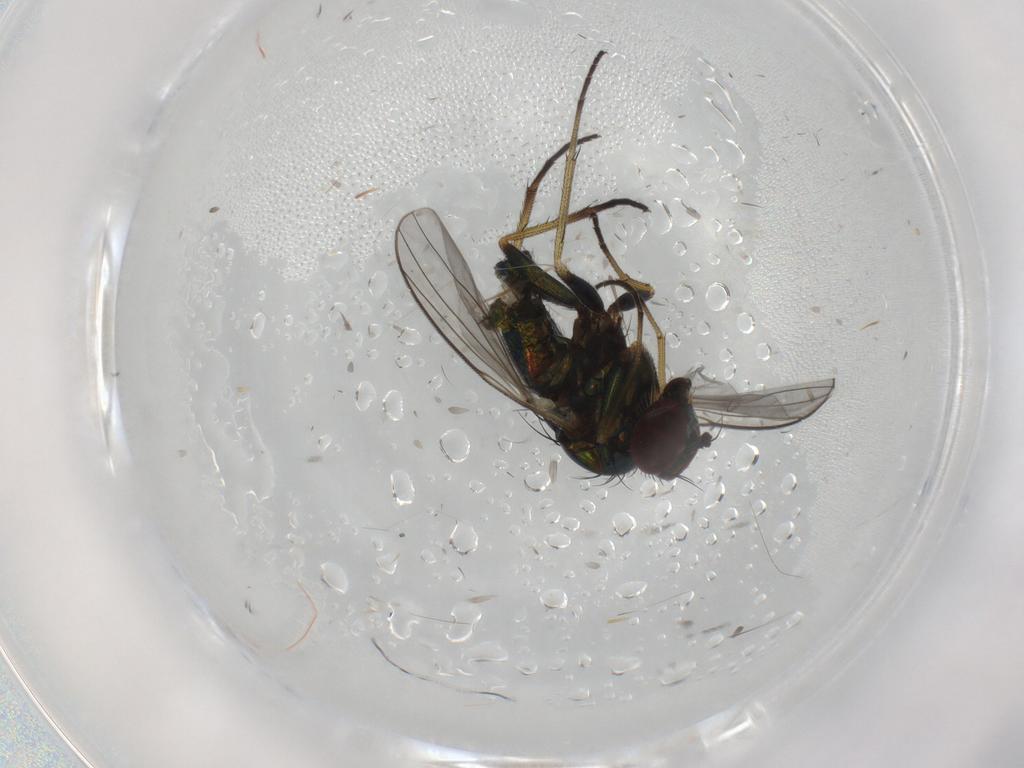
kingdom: Animalia
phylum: Arthropoda
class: Insecta
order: Diptera
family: Dolichopodidae
